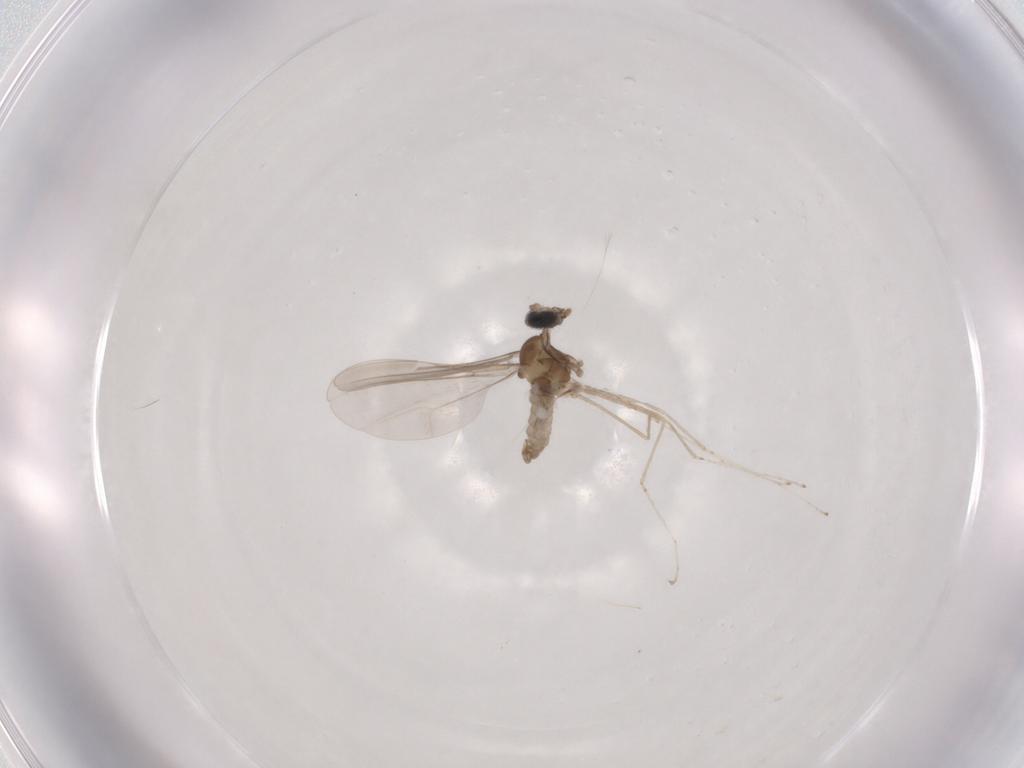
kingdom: Animalia
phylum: Arthropoda
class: Insecta
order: Diptera
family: Cecidomyiidae
